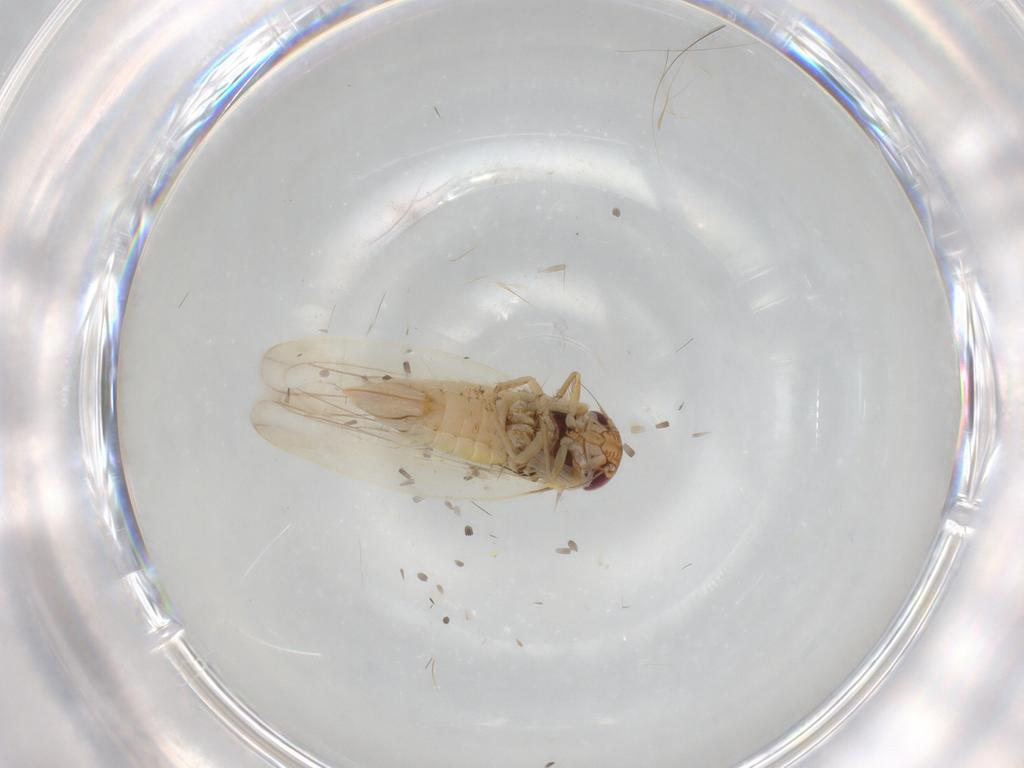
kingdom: Animalia
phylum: Arthropoda
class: Insecta
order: Hemiptera
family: Cicadellidae
